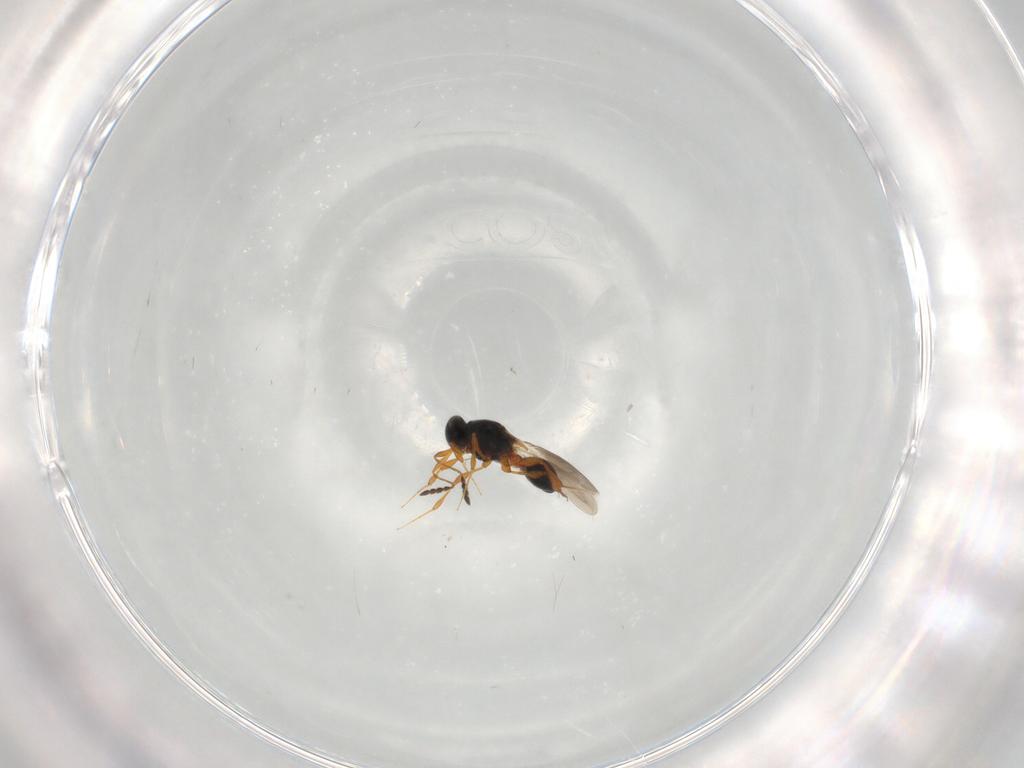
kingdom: Animalia
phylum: Arthropoda
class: Insecta
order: Hymenoptera
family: Platygastridae
